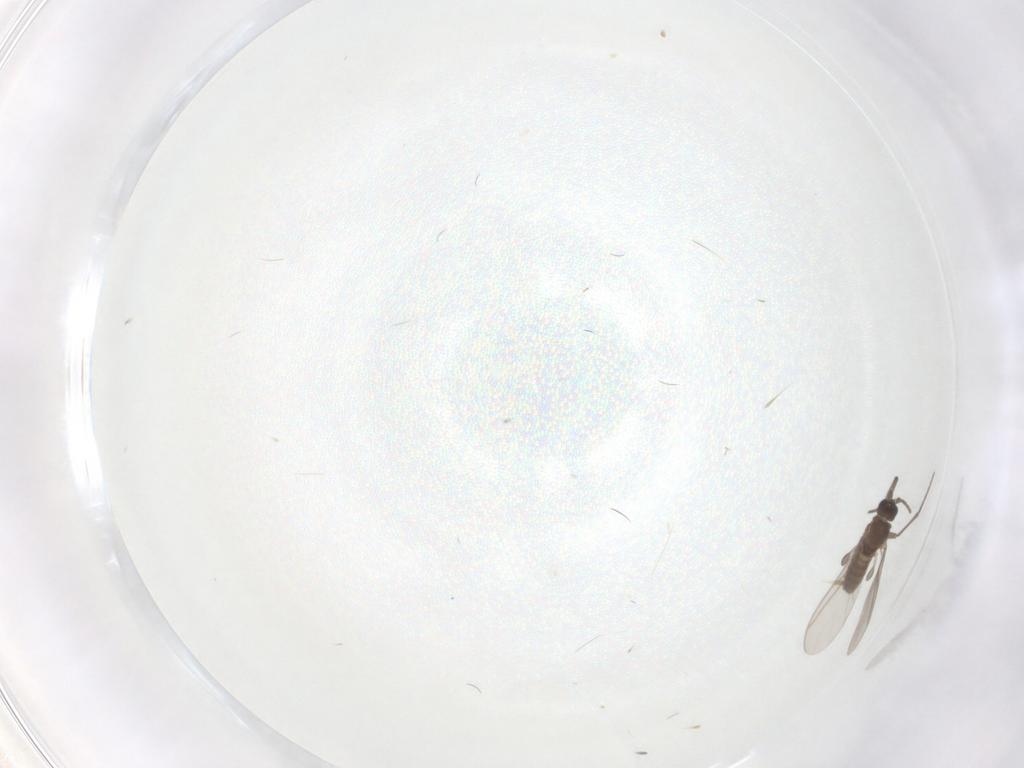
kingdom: Animalia
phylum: Arthropoda
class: Insecta
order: Diptera
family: Sciaridae
